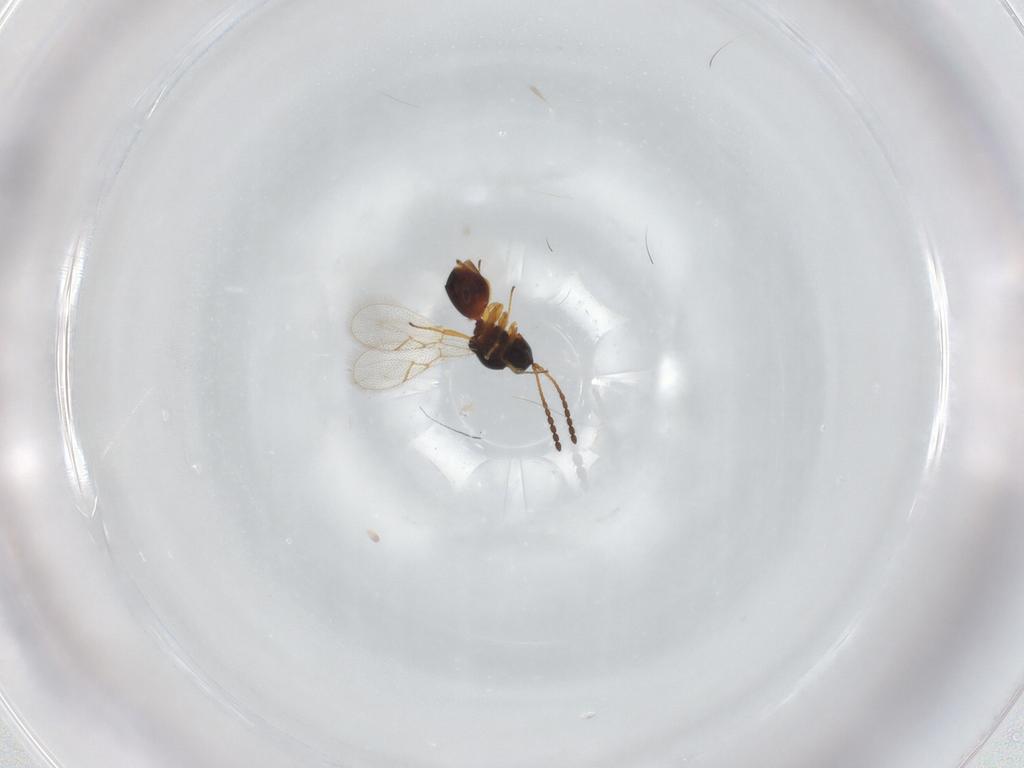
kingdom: Animalia
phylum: Arthropoda
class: Insecta
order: Hymenoptera
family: Figitidae
